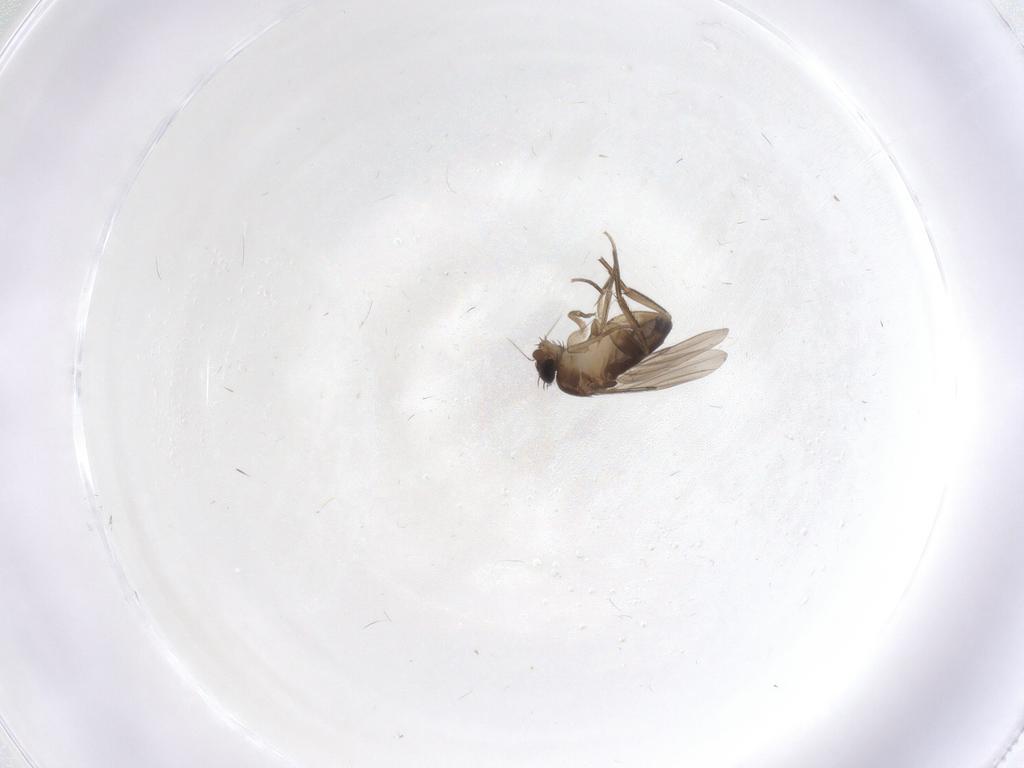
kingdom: Animalia
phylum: Arthropoda
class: Insecta
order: Diptera
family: Phoridae
